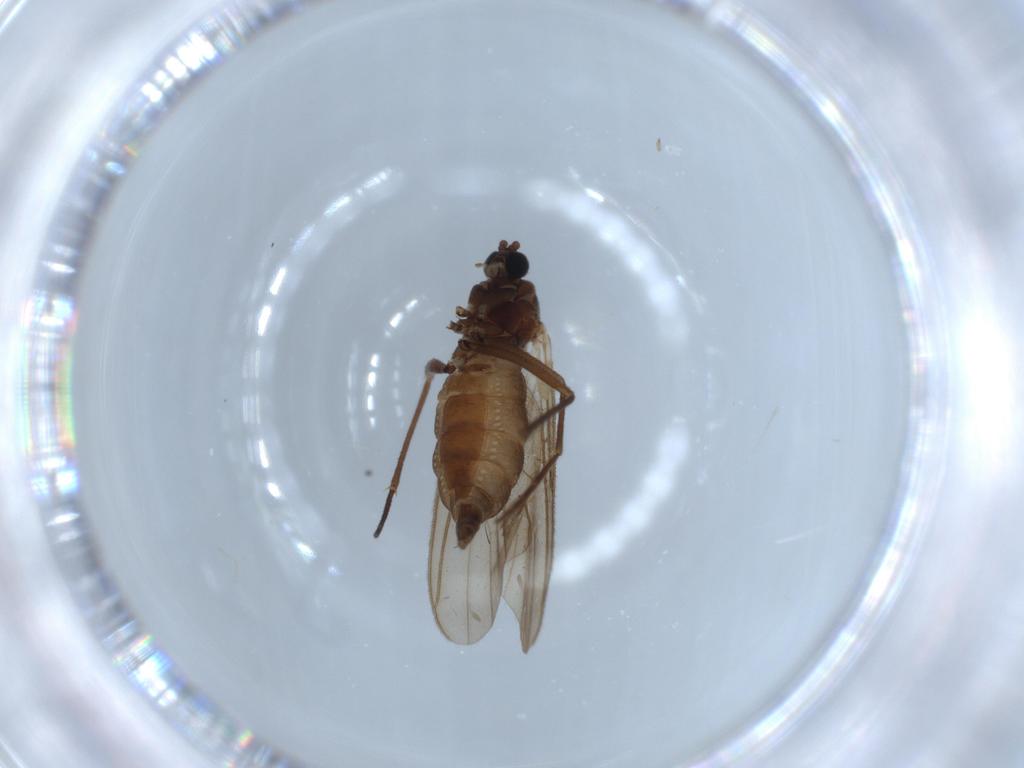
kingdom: Animalia
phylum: Arthropoda
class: Insecta
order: Diptera
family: Sciaridae
